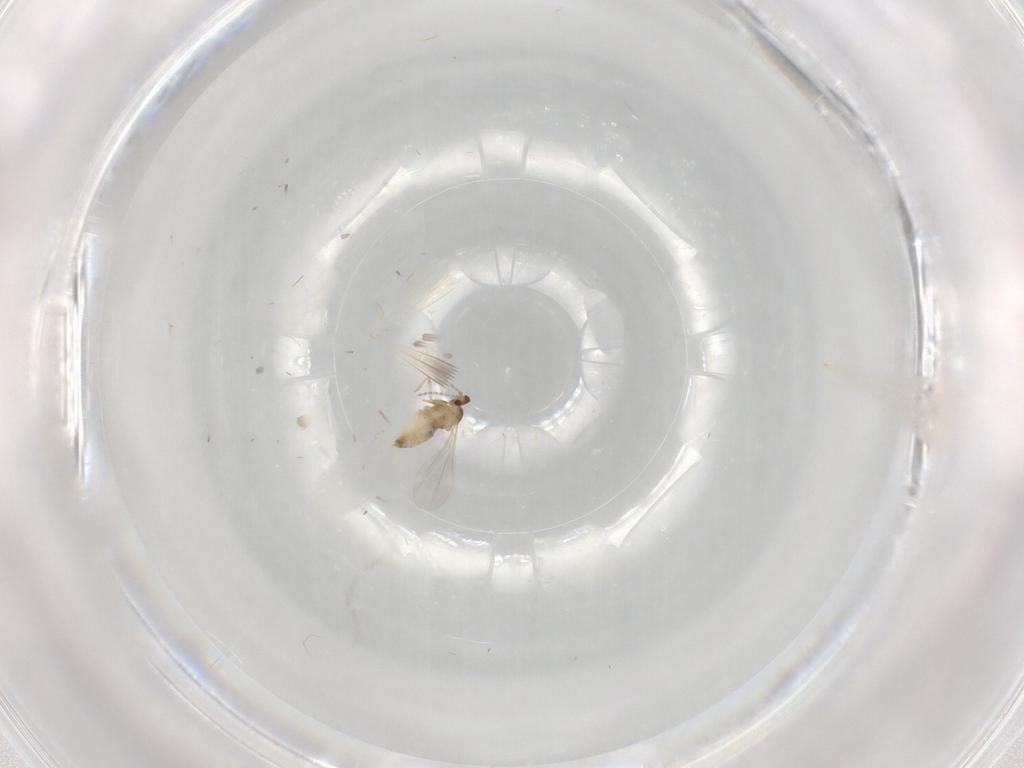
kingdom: Animalia
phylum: Arthropoda
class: Insecta
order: Diptera
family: Cecidomyiidae
